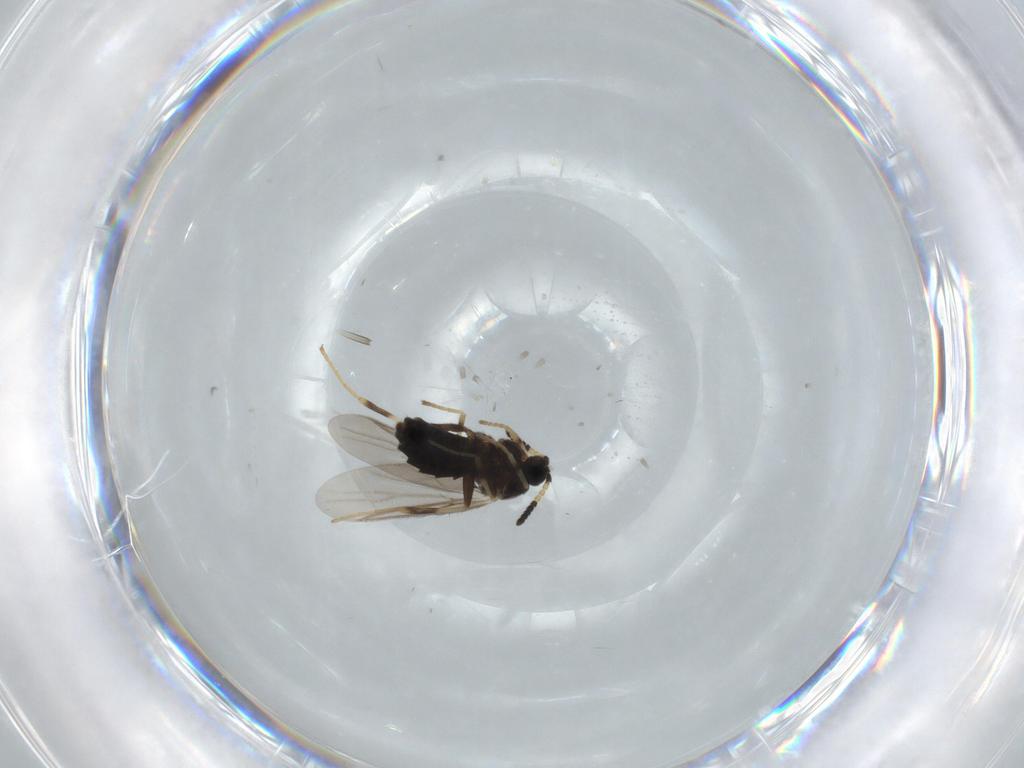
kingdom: Animalia
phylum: Arthropoda
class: Insecta
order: Diptera
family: Scatopsidae
